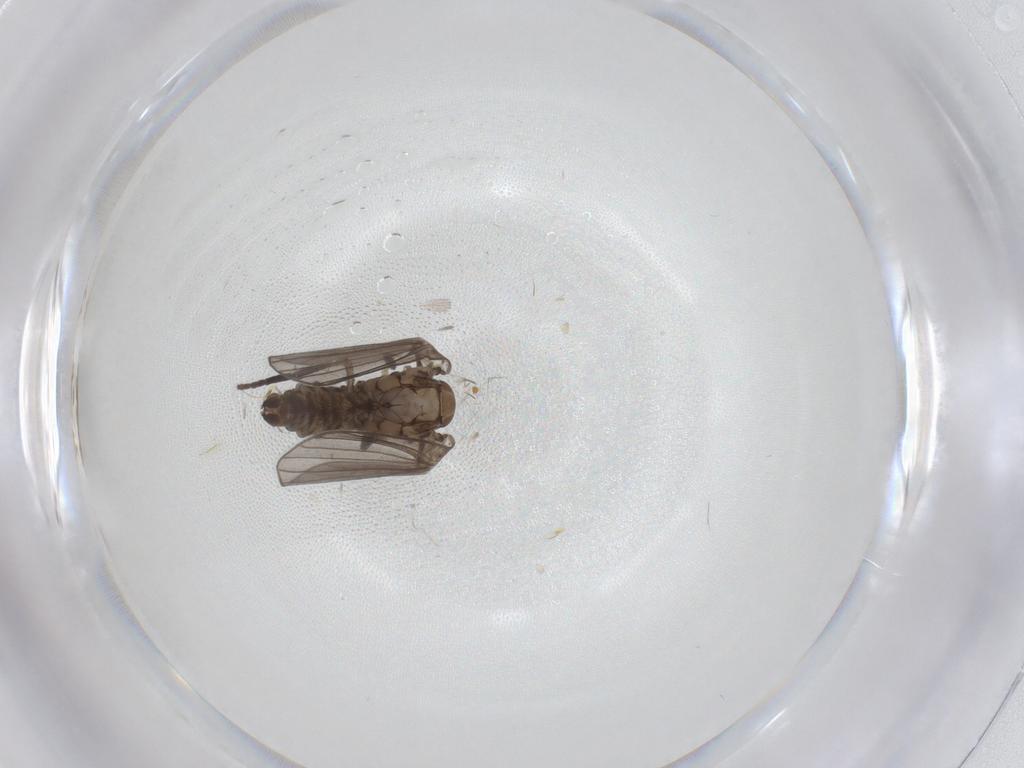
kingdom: Animalia
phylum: Arthropoda
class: Insecta
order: Diptera
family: Psychodidae
